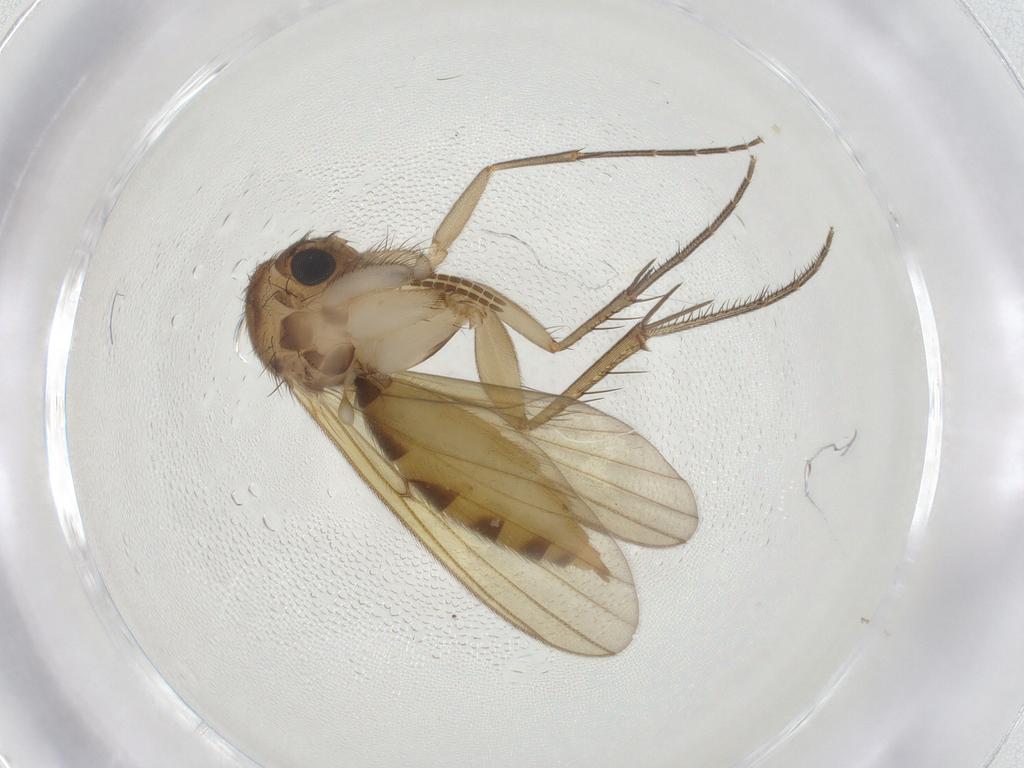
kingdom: Animalia
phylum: Arthropoda
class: Insecta
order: Diptera
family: Mycetophilidae
